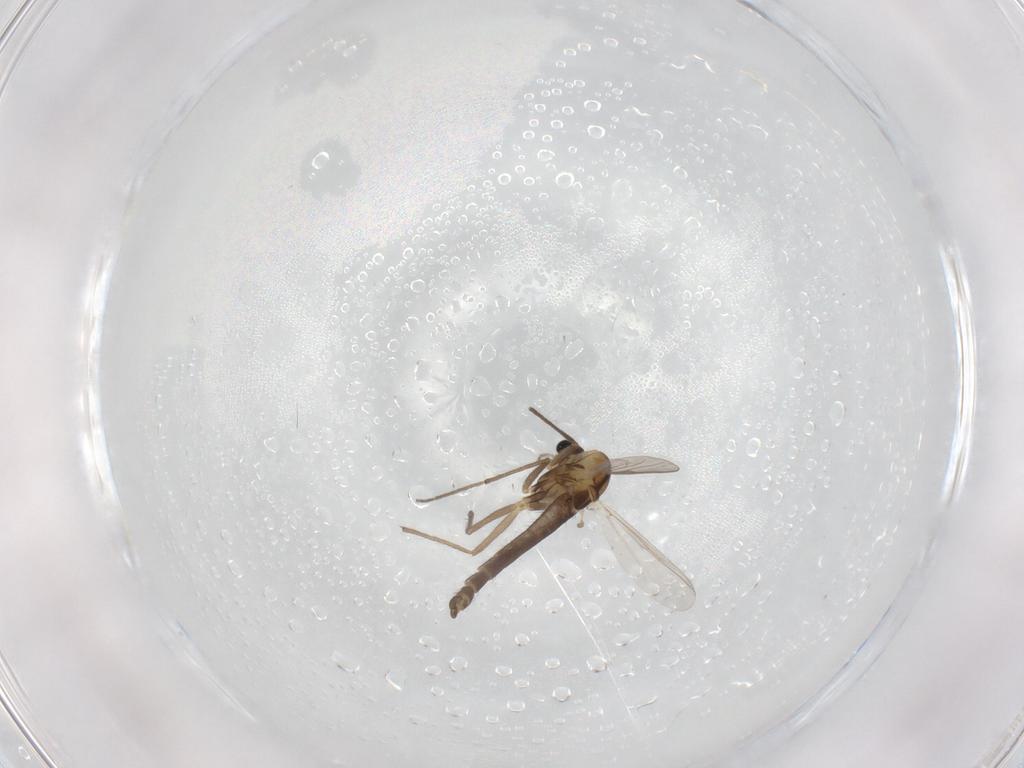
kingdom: Animalia
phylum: Arthropoda
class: Insecta
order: Diptera
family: Chironomidae
